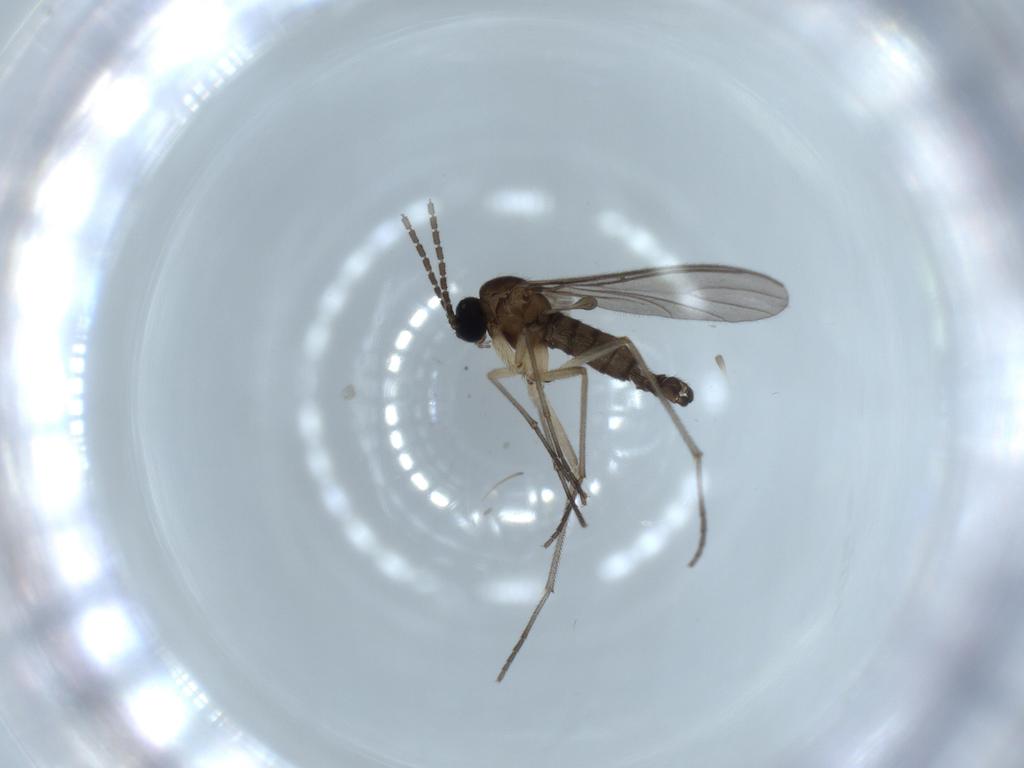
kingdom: Animalia
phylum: Arthropoda
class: Insecta
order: Diptera
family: Sciaridae
